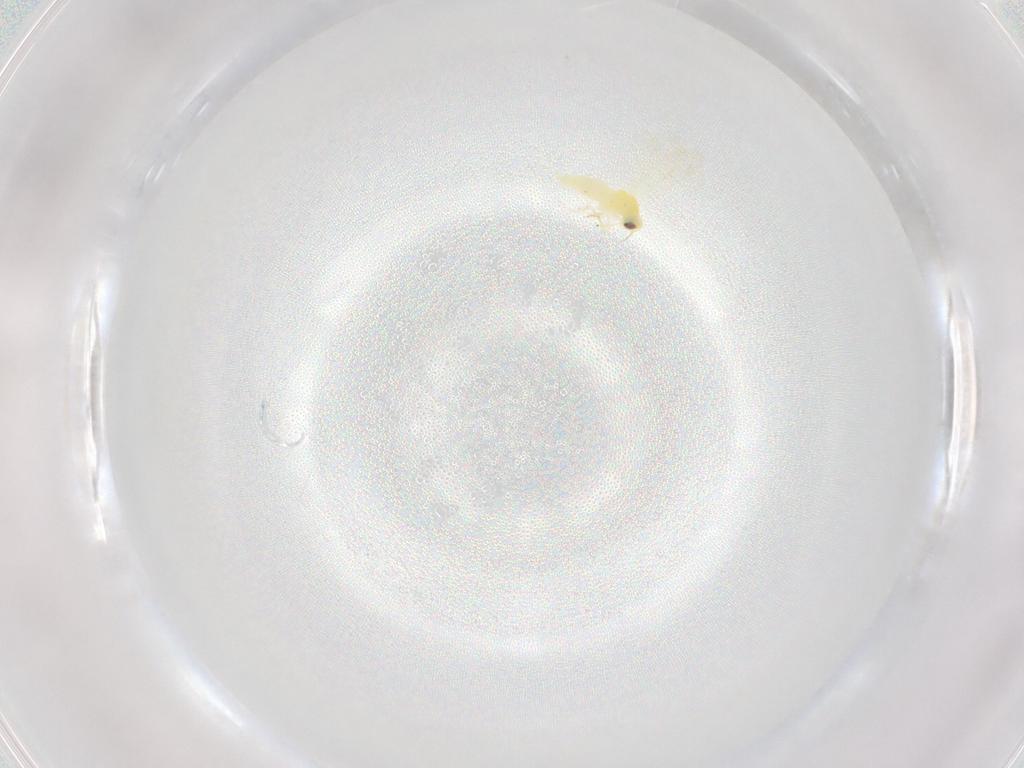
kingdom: Animalia
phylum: Arthropoda
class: Insecta
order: Hemiptera
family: Aleyrodidae
